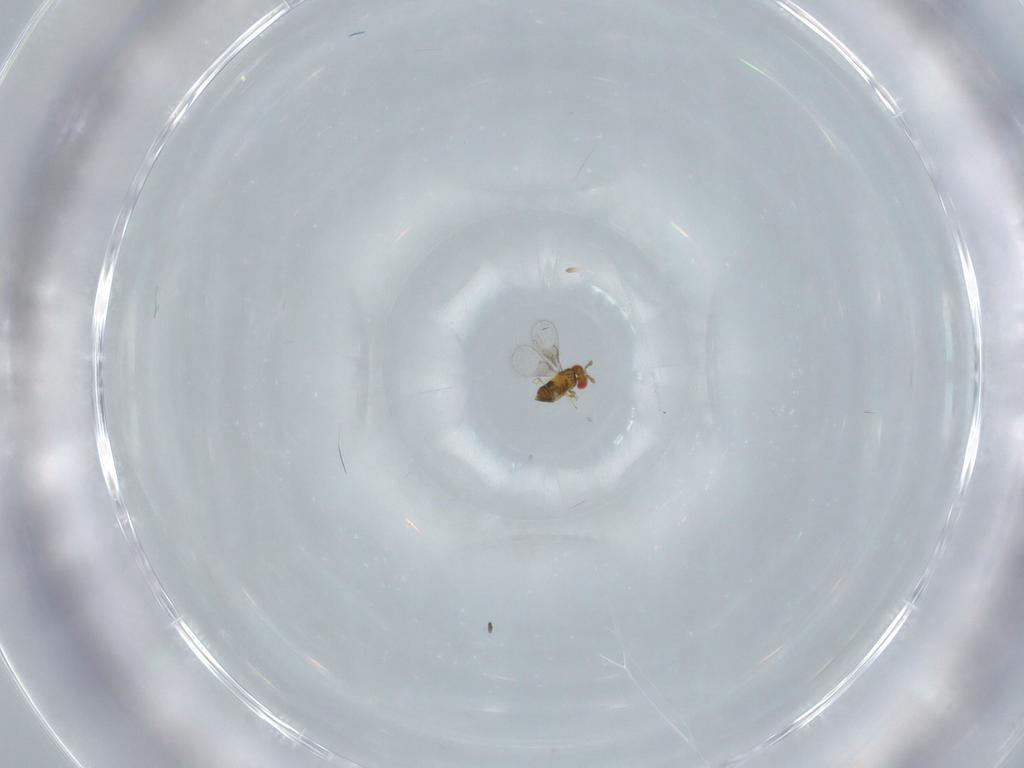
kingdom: Animalia
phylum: Arthropoda
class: Insecta
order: Hymenoptera
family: Trichogrammatidae
